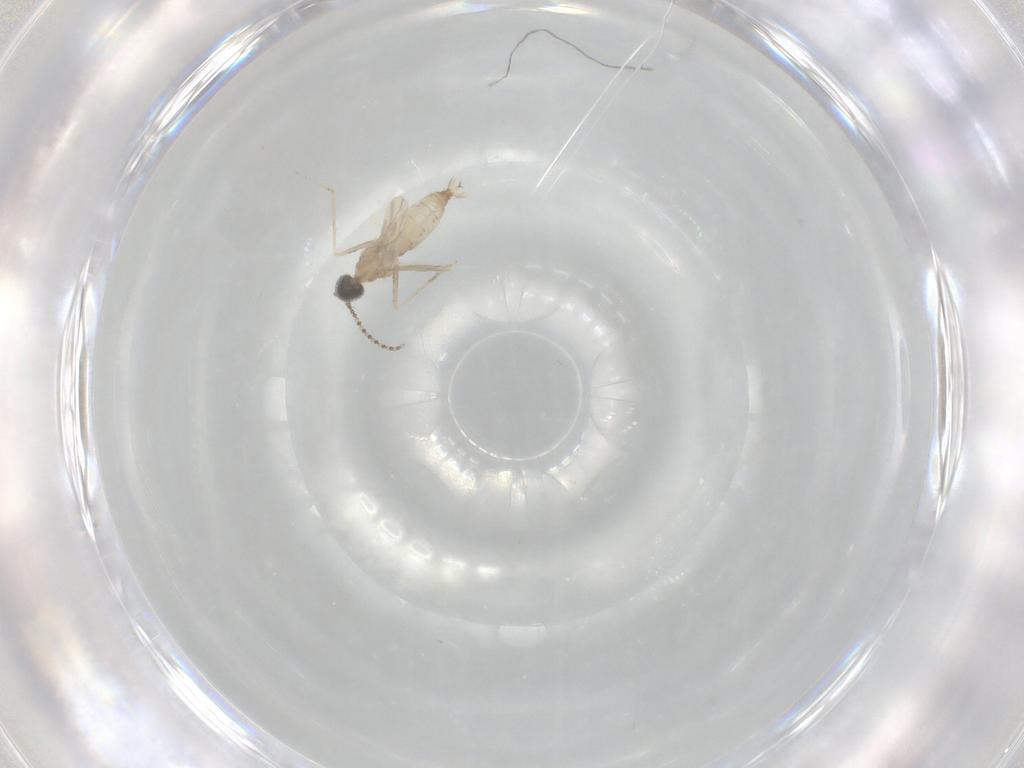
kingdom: Animalia
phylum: Arthropoda
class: Insecta
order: Diptera
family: Cecidomyiidae
